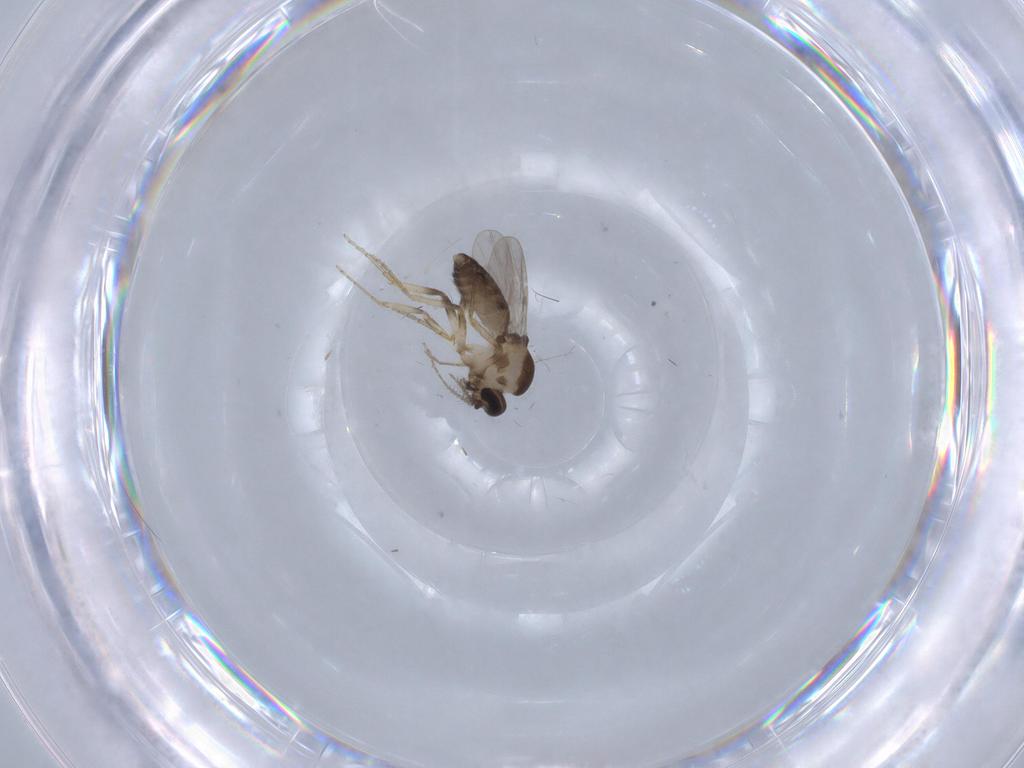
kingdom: Animalia
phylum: Arthropoda
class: Insecta
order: Diptera
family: Ceratopogonidae
